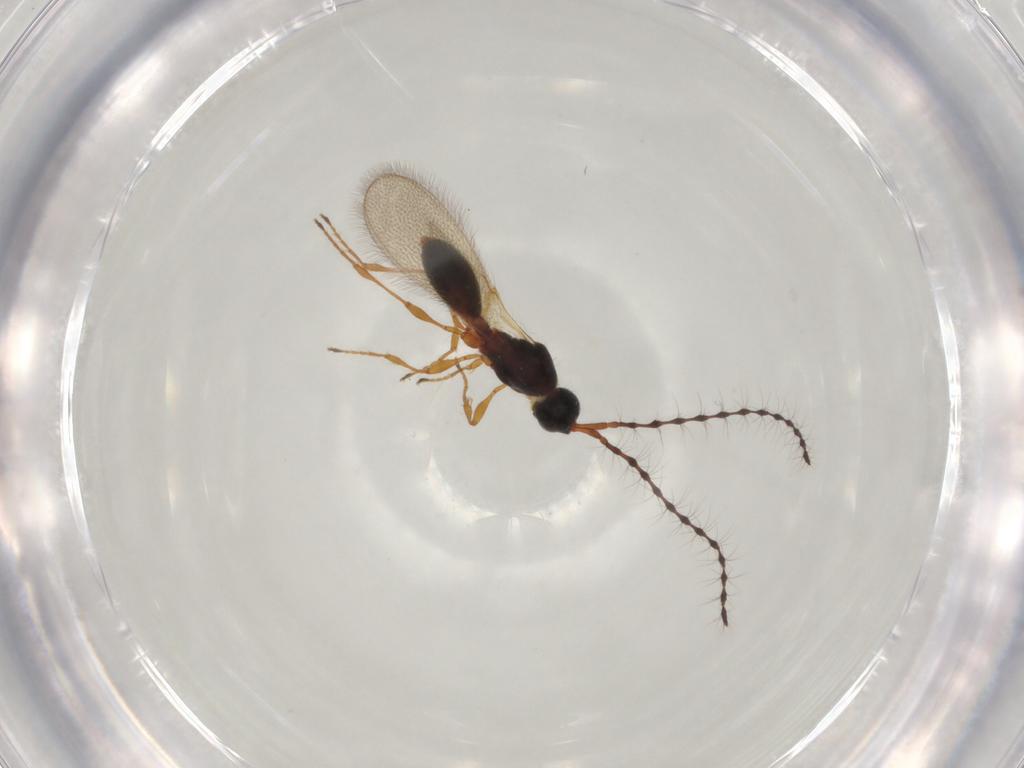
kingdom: Animalia
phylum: Arthropoda
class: Insecta
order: Hymenoptera
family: Diapriidae
